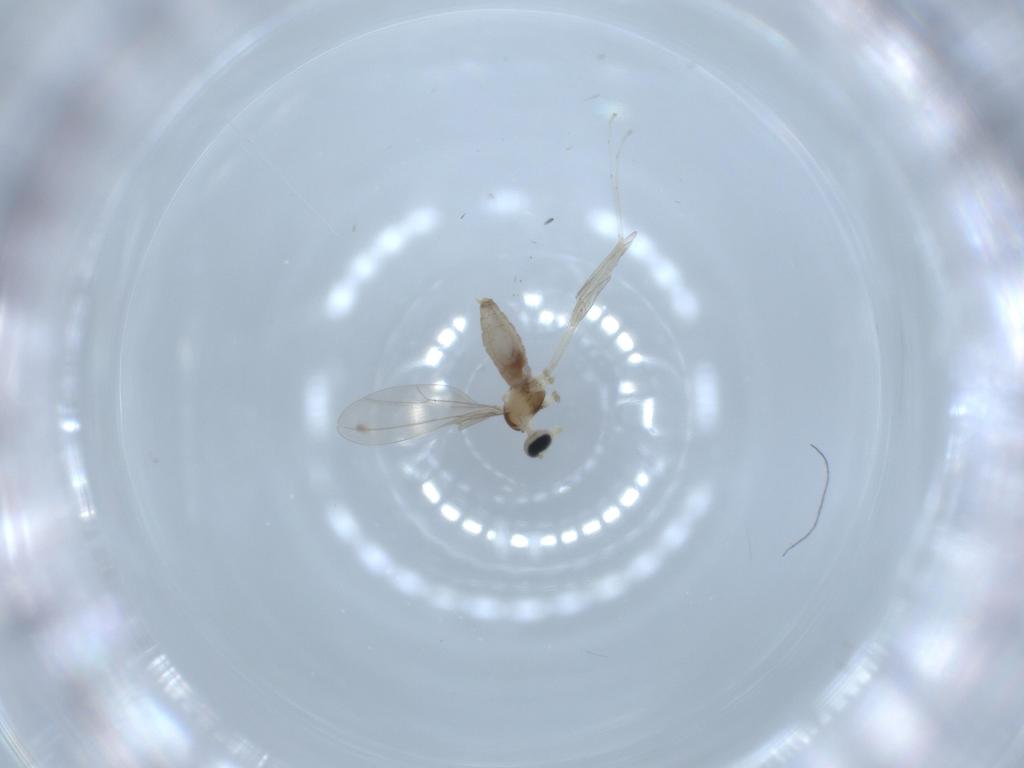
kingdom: Animalia
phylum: Arthropoda
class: Insecta
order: Diptera
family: Cecidomyiidae
